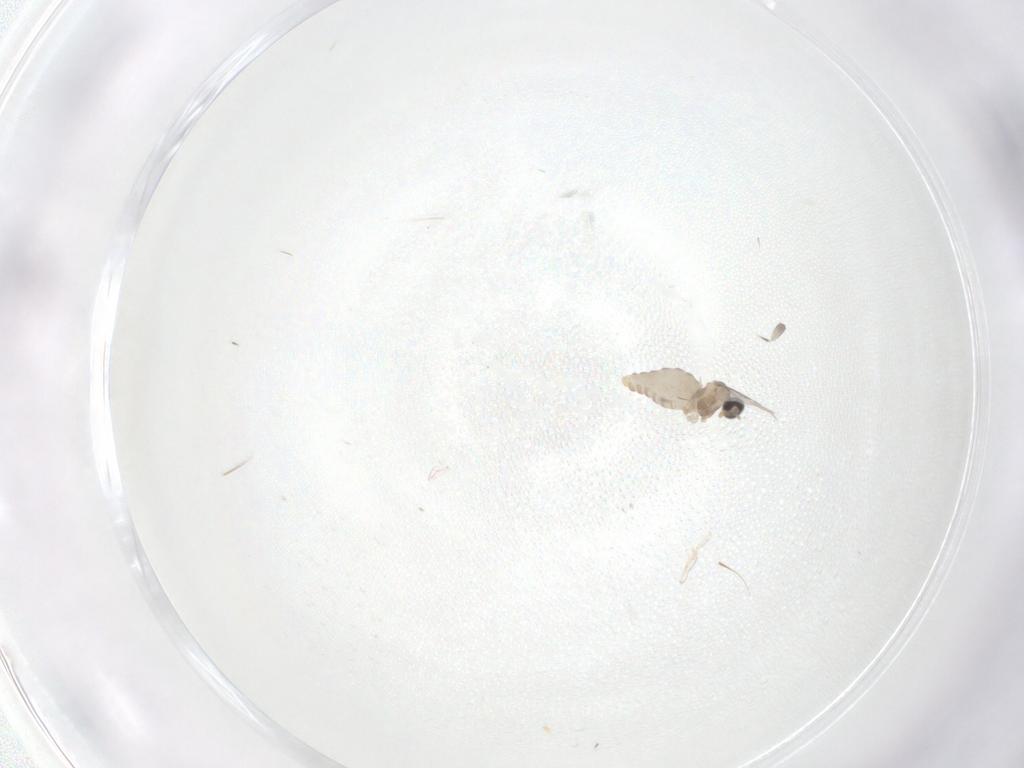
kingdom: Animalia
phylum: Arthropoda
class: Insecta
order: Diptera
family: Cecidomyiidae
